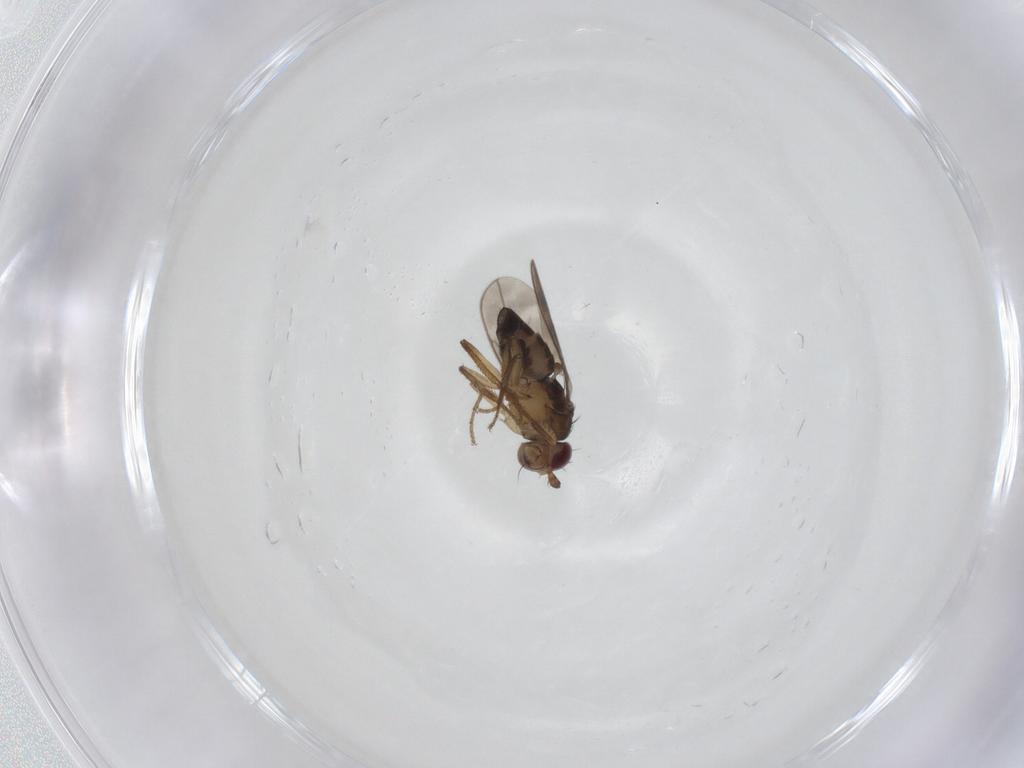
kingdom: Animalia
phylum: Arthropoda
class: Insecta
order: Diptera
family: Sphaeroceridae
